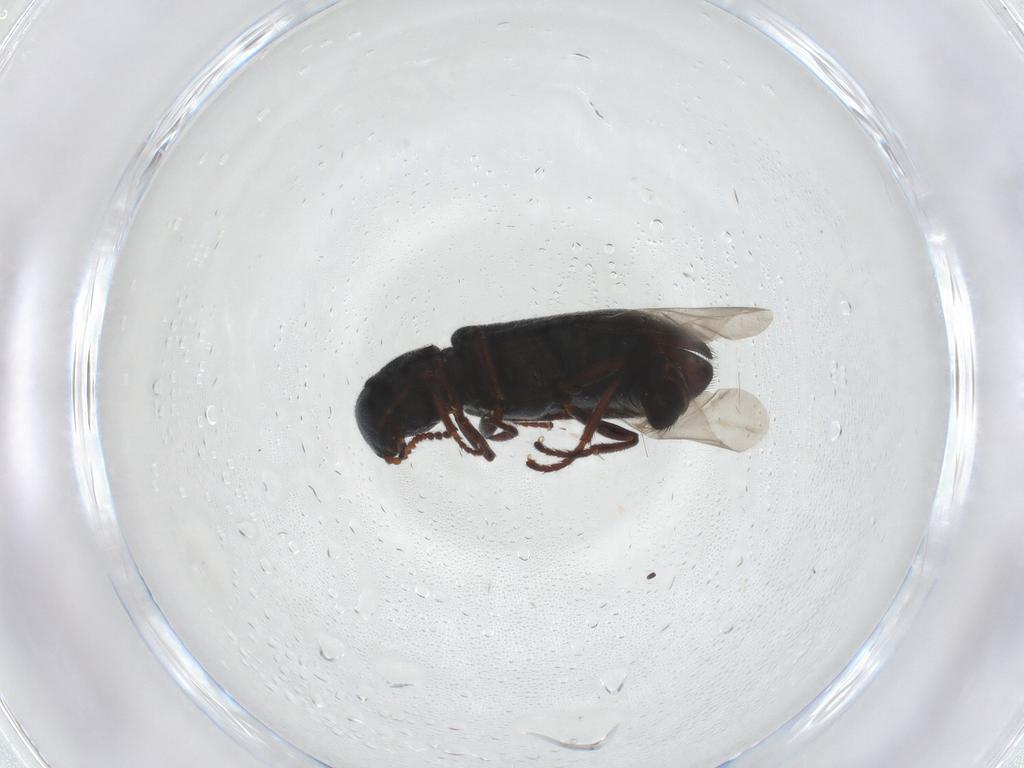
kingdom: Animalia
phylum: Arthropoda
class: Insecta
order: Coleoptera
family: Melyridae
